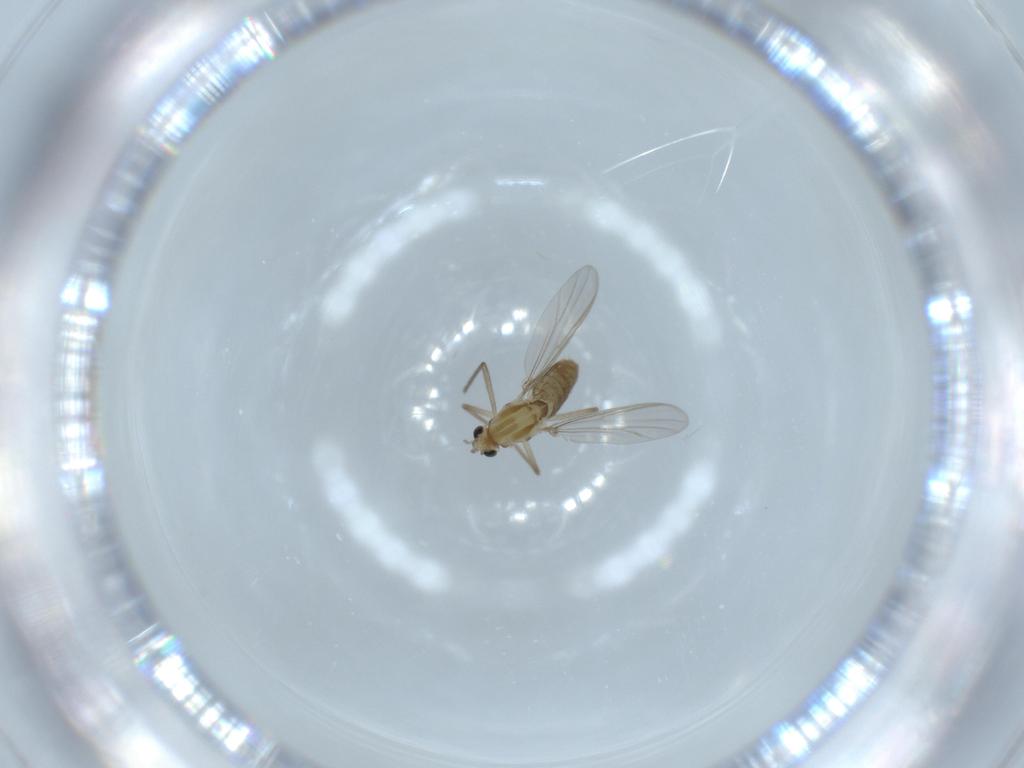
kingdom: Animalia
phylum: Arthropoda
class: Insecta
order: Diptera
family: Chironomidae
